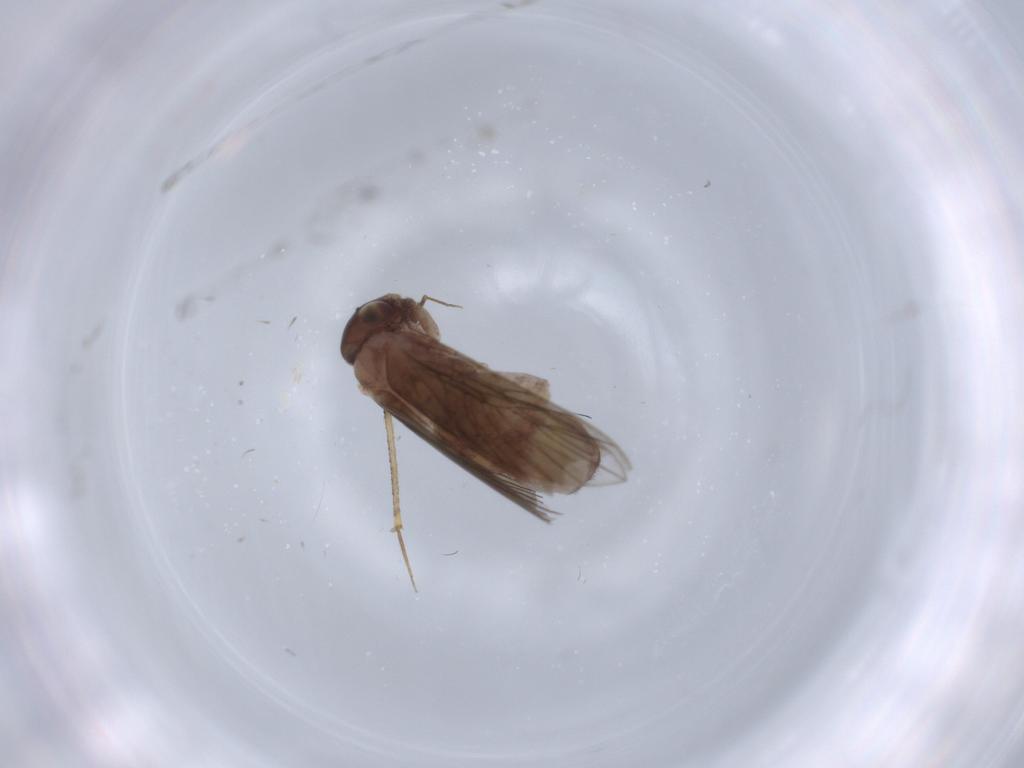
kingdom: Animalia
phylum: Arthropoda
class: Insecta
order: Psocodea
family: Lepidopsocidae
